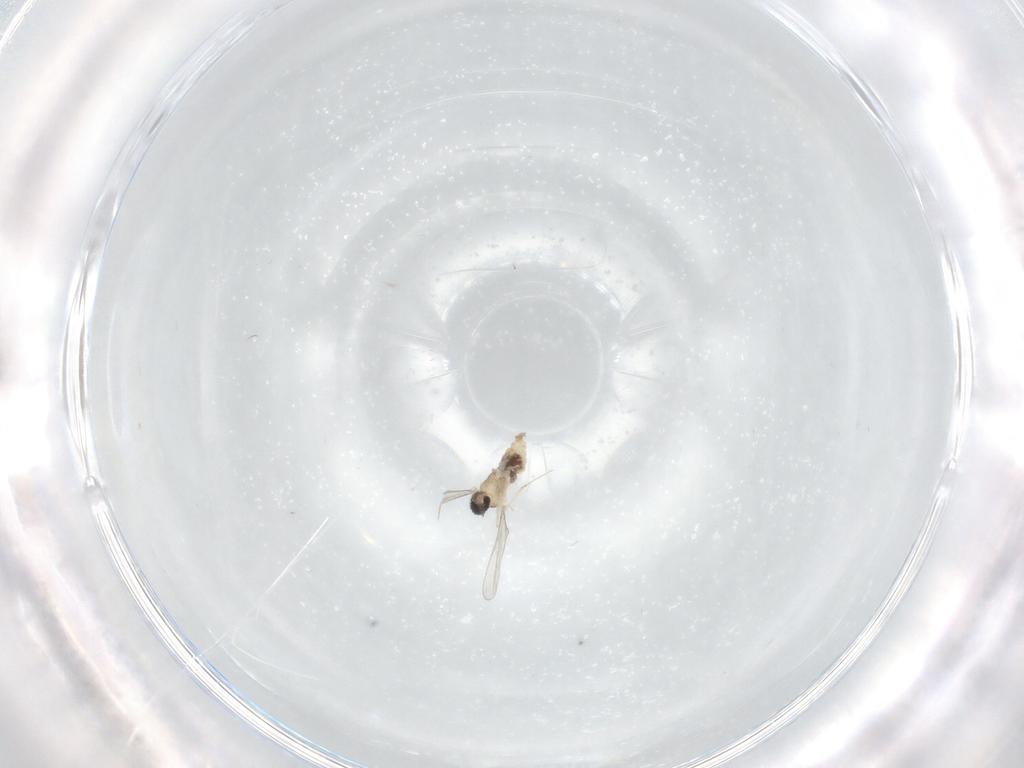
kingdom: Animalia
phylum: Arthropoda
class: Insecta
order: Diptera
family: Cecidomyiidae
